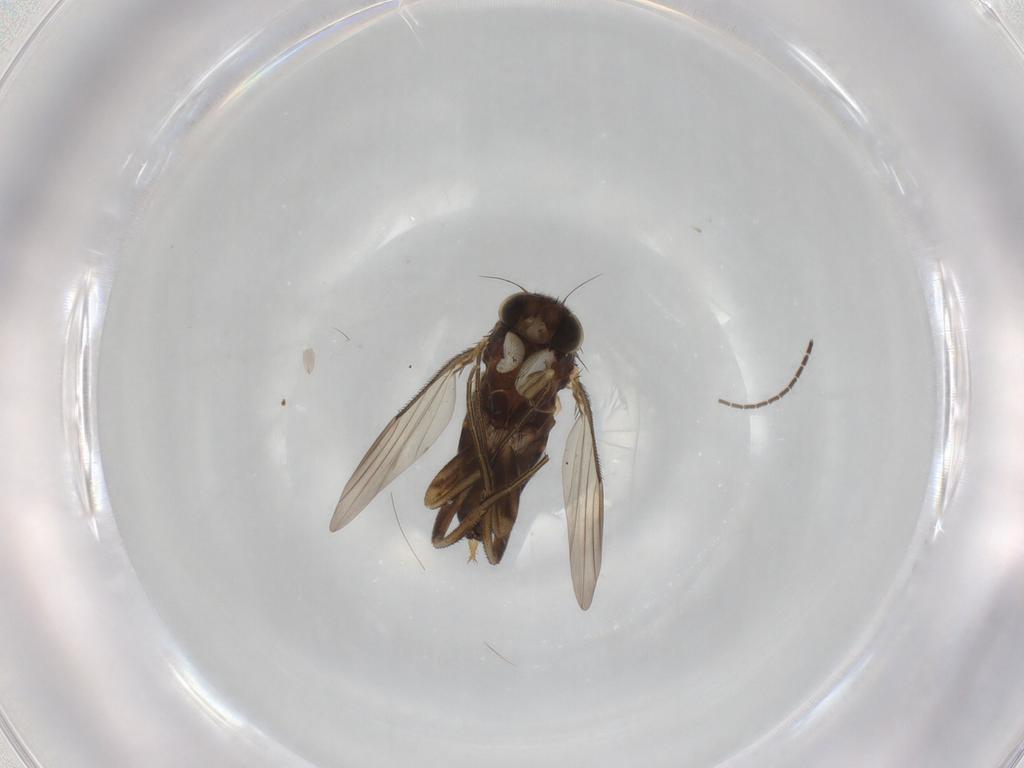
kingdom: Animalia
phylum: Arthropoda
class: Insecta
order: Diptera
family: Phoridae
